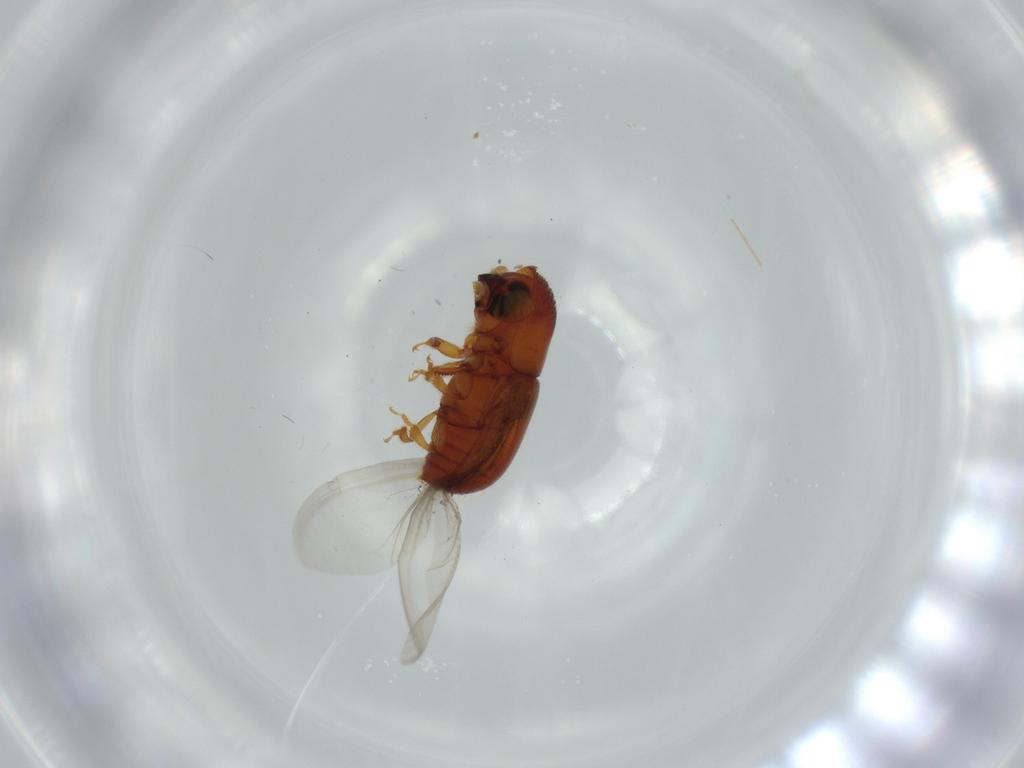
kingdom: Animalia
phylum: Arthropoda
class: Insecta
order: Coleoptera
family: Curculionidae
